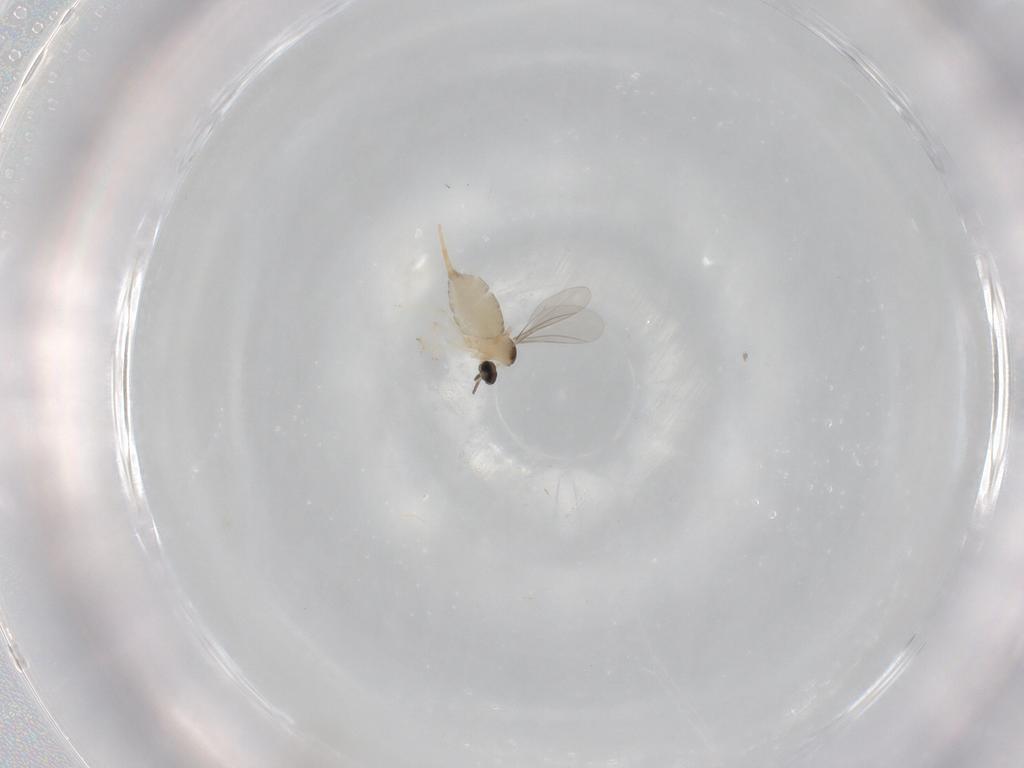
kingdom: Animalia
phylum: Arthropoda
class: Insecta
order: Diptera
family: Cecidomyiidae
